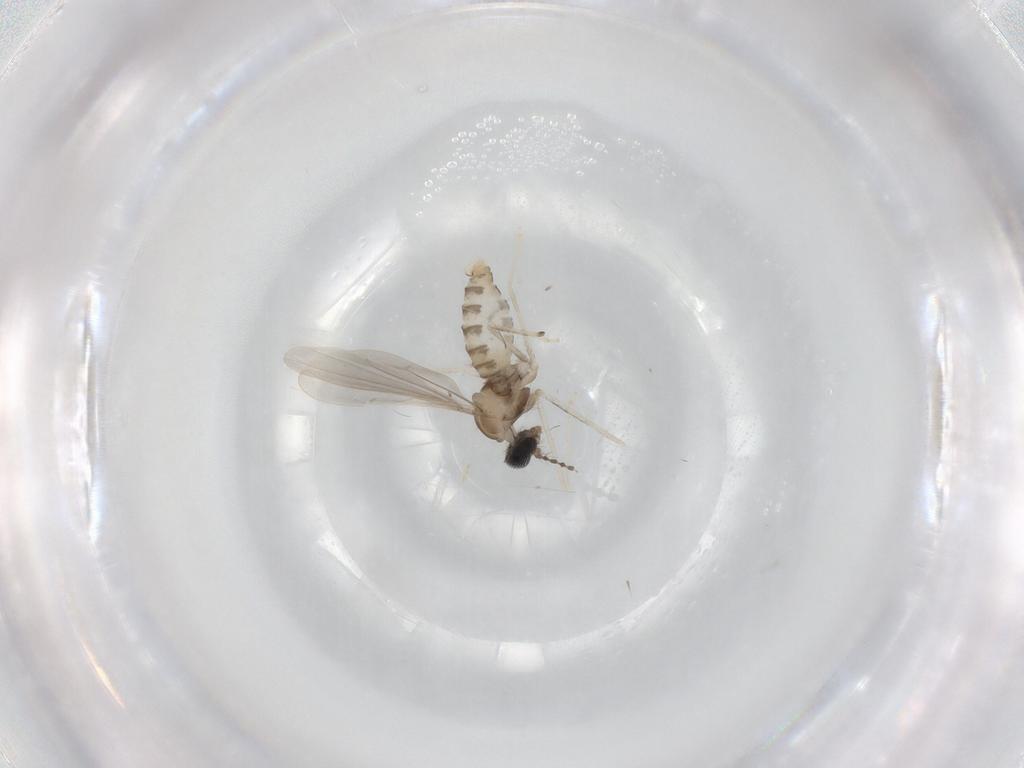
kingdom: Animalia
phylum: Arthropoda
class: Insecta
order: Diptera
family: Cecidomyiidae
